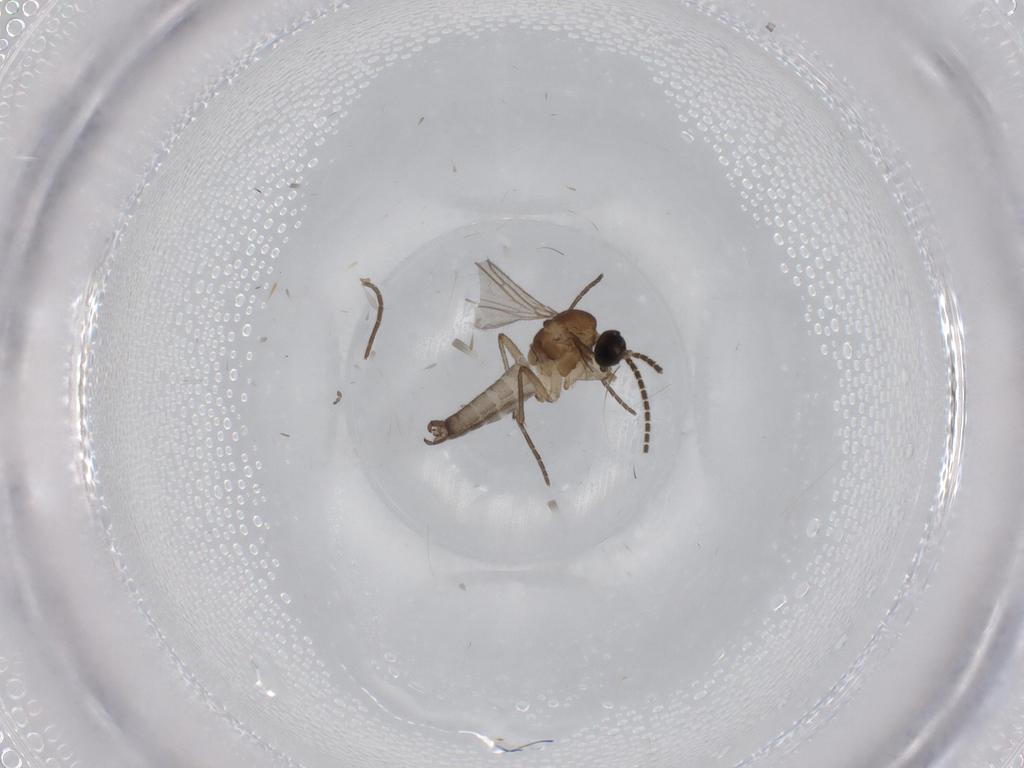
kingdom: Animalia
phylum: Arthropoda
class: Insecta
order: Diptera
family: Sciaridae
